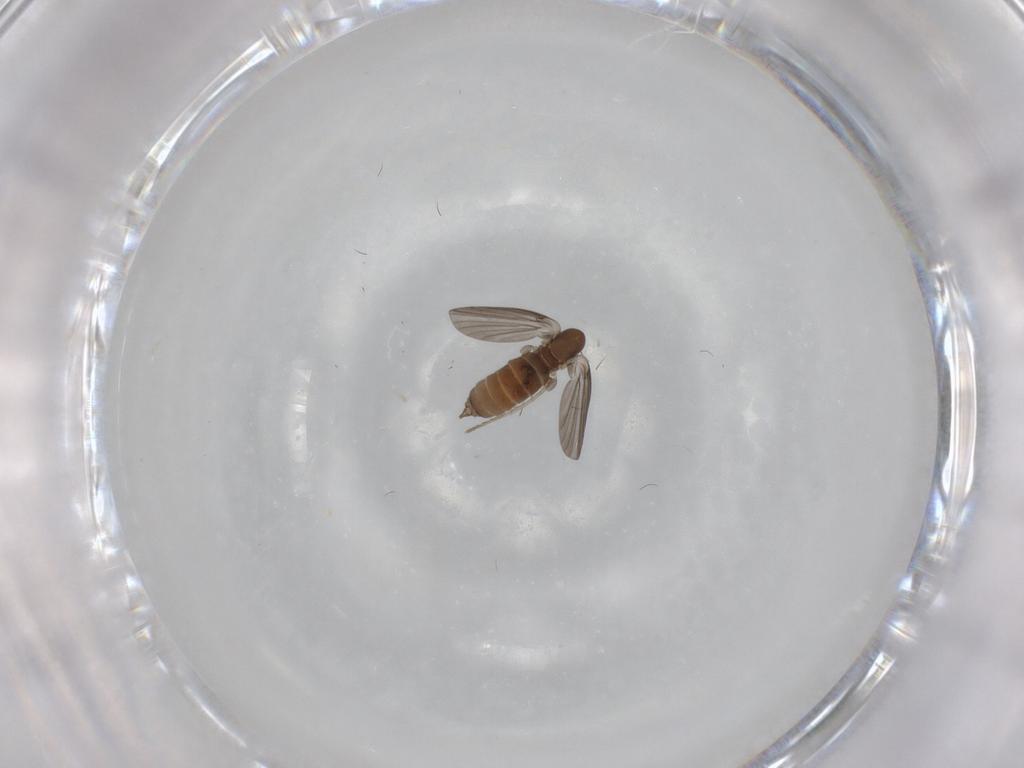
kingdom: Animalia
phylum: Arthropoda
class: Insecta
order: Diptera
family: Psychodidae
